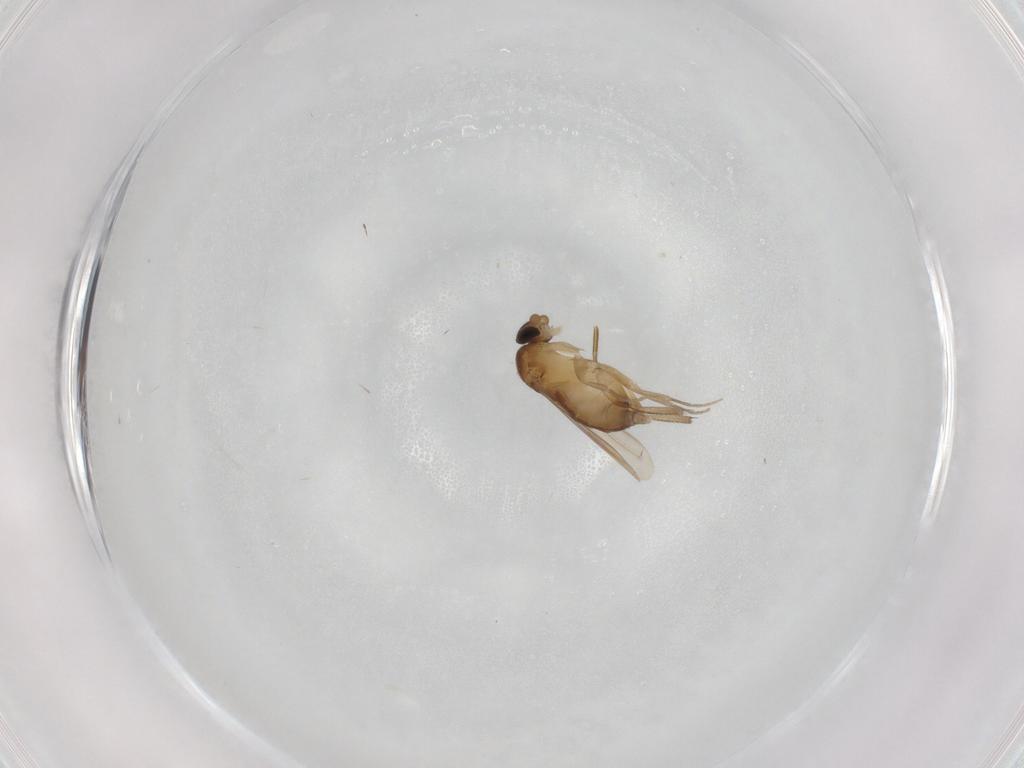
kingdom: Animalia
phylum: Arthropoda
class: Insecta
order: Diptera
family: Phoridae
